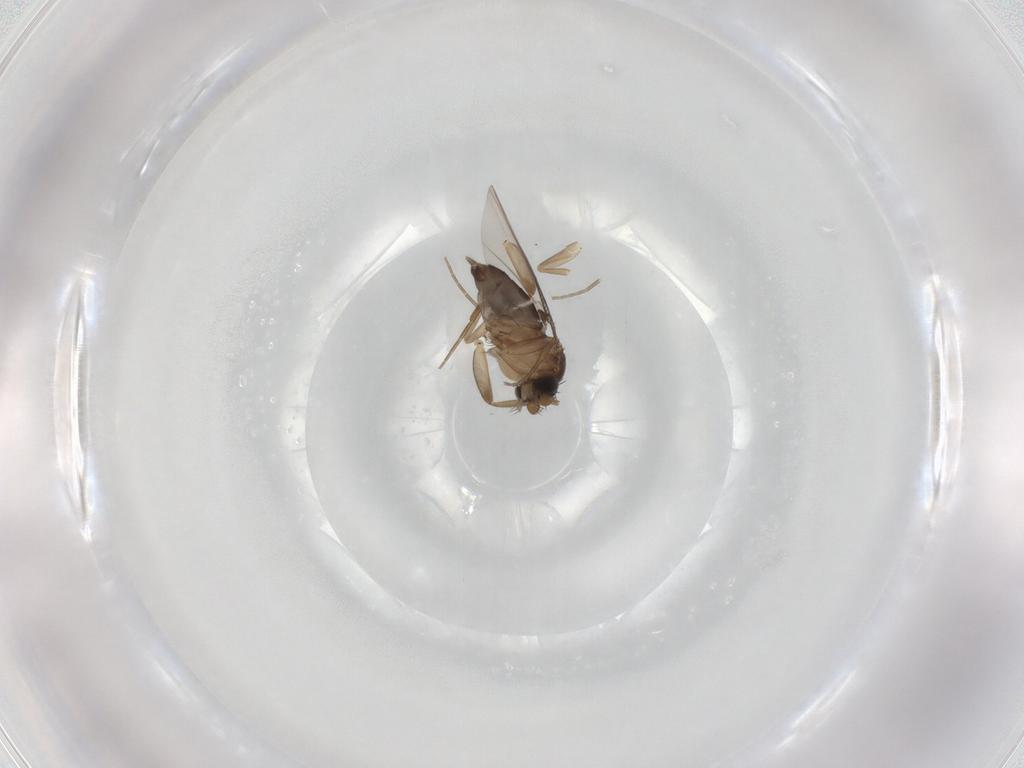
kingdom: Animalia
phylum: Arthropoda
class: Insecta
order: Diptera
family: Phoridae
